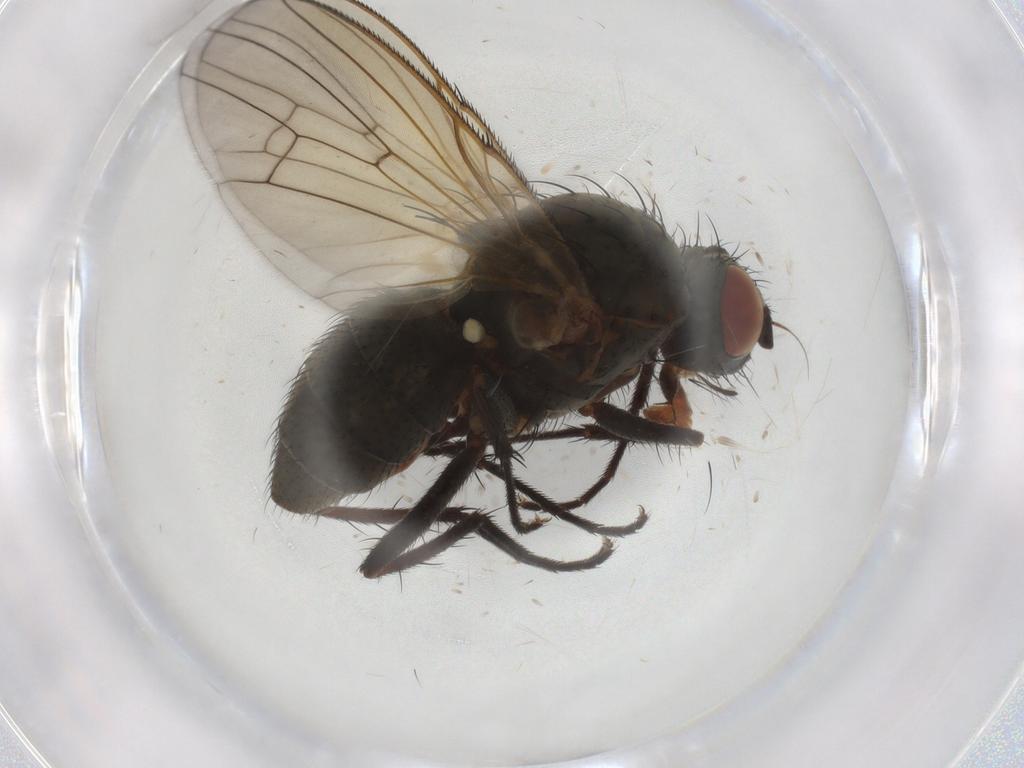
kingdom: Animalia
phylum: Arthropoda
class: Insecta
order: Diptera
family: Anthomyiidae
